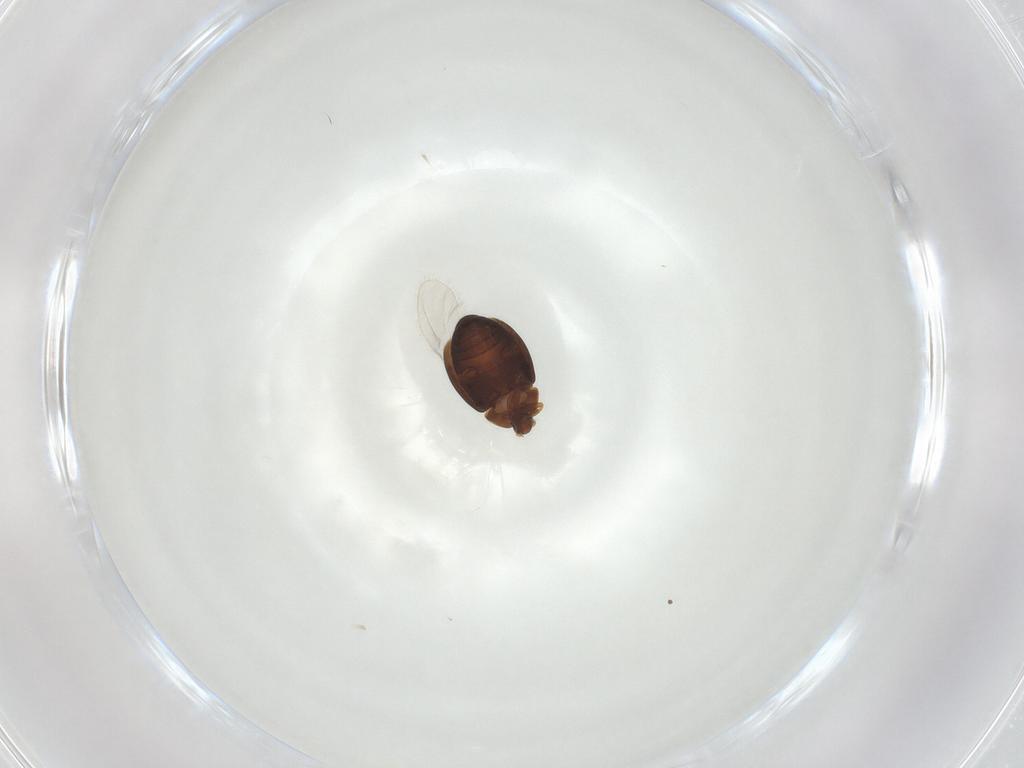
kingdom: Animalia
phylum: Arthropoda
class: Insecta
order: Coleoptera
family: Corylophidae
